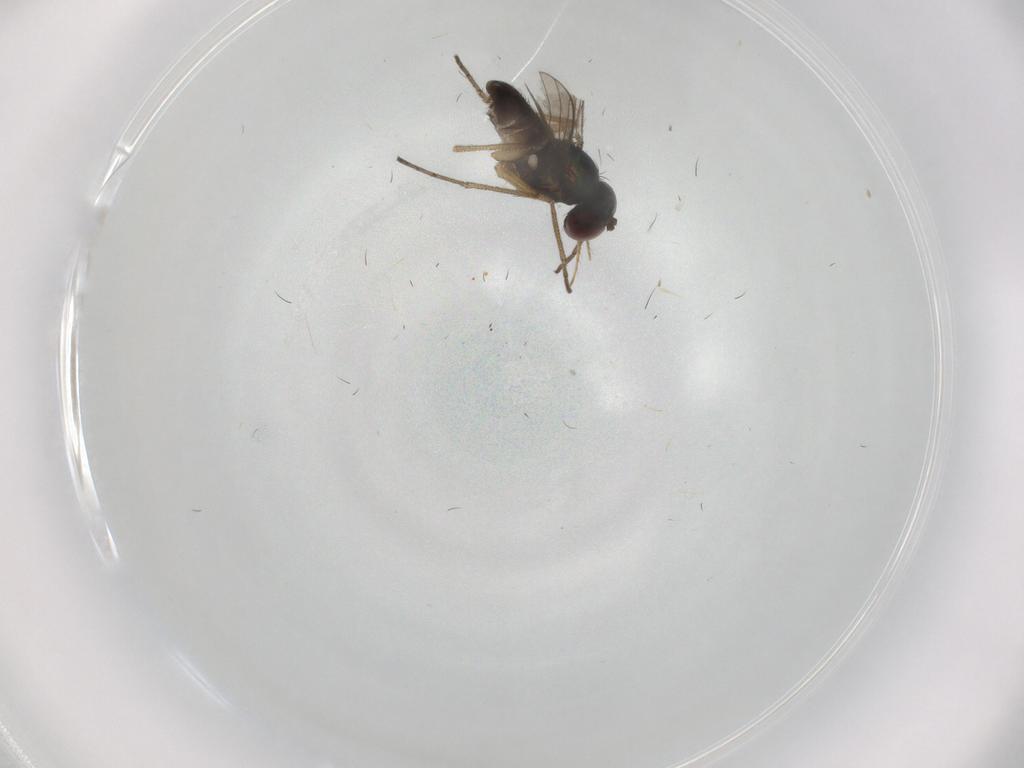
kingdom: Animalia
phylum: Arthropoda
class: Insecta
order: Diptera
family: Dolichopodidae
